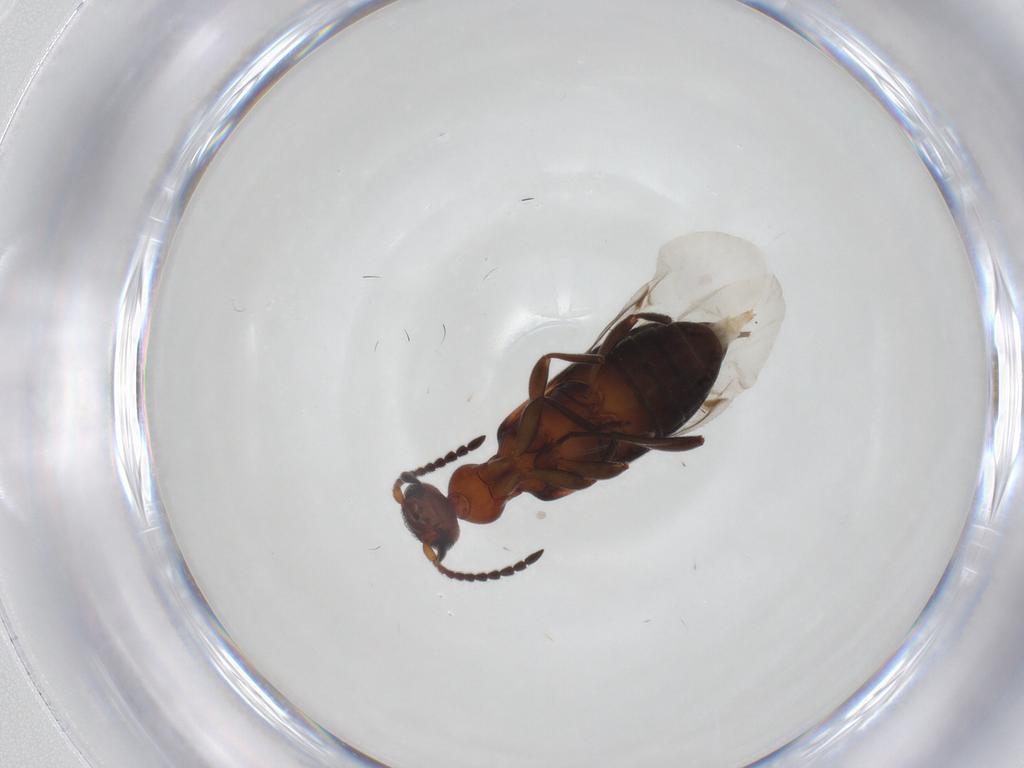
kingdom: Animalia
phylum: Arthropoda
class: Insecta
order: Coleoptera
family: Anthicidae
